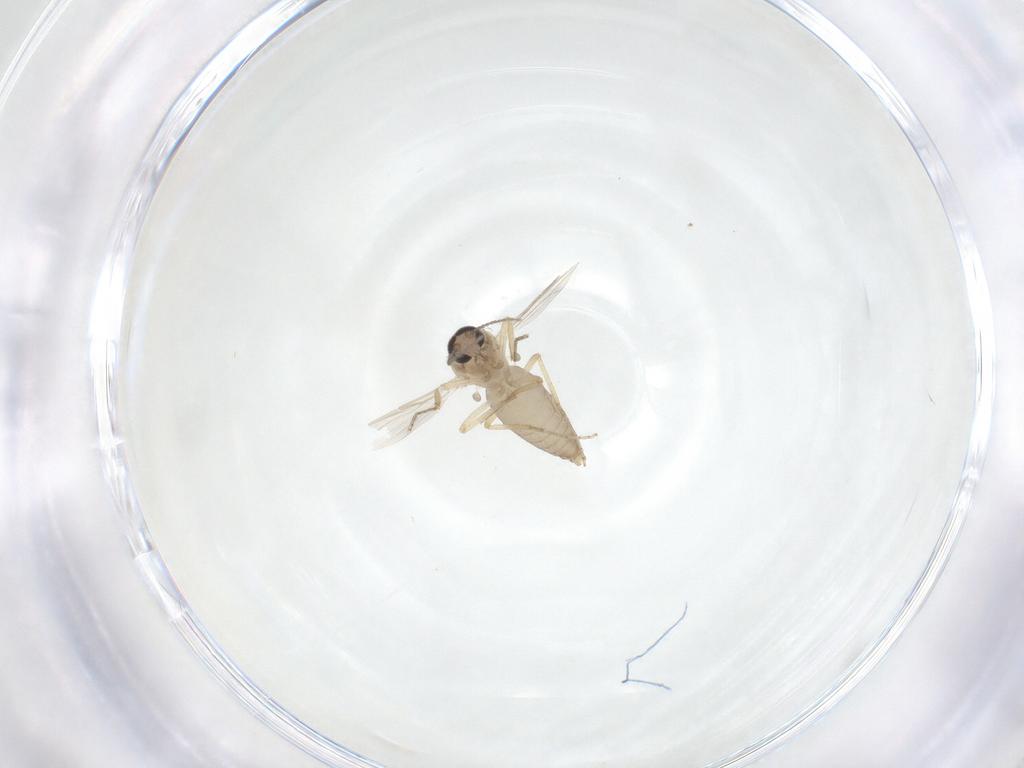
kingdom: Animalia
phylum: Arthropoda
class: Insecta
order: Diptera
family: Ceratopogonidae
